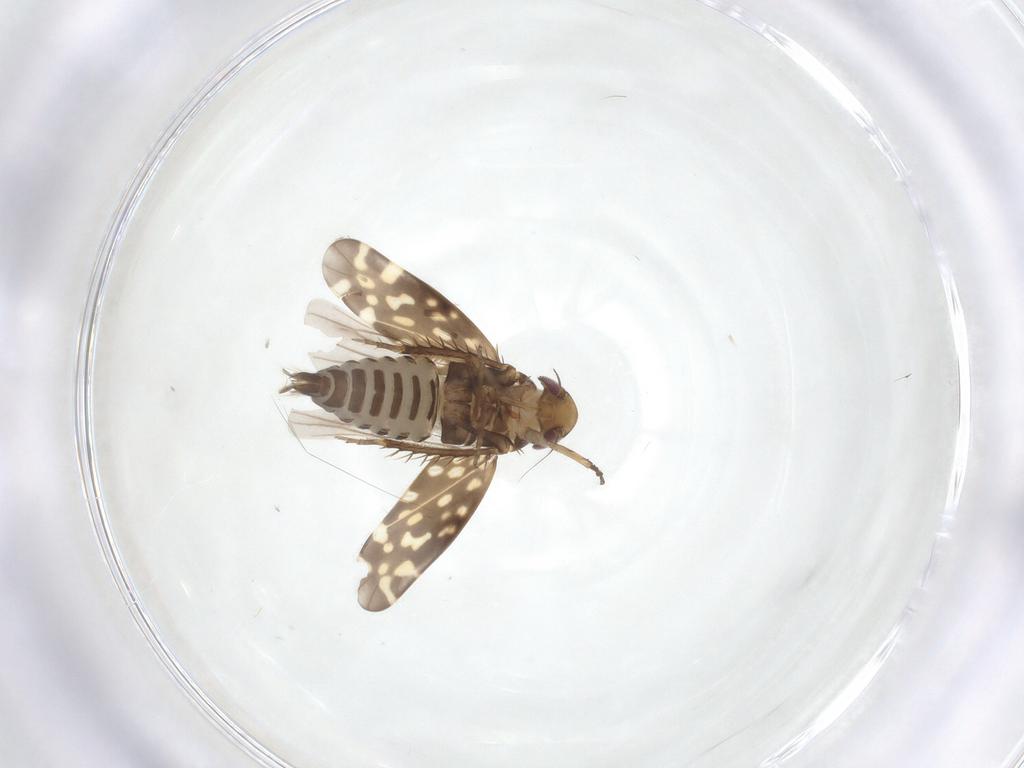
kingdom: Animalia
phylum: Arthropoda
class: Insecta
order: Hemiptera
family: Cicadellidae
